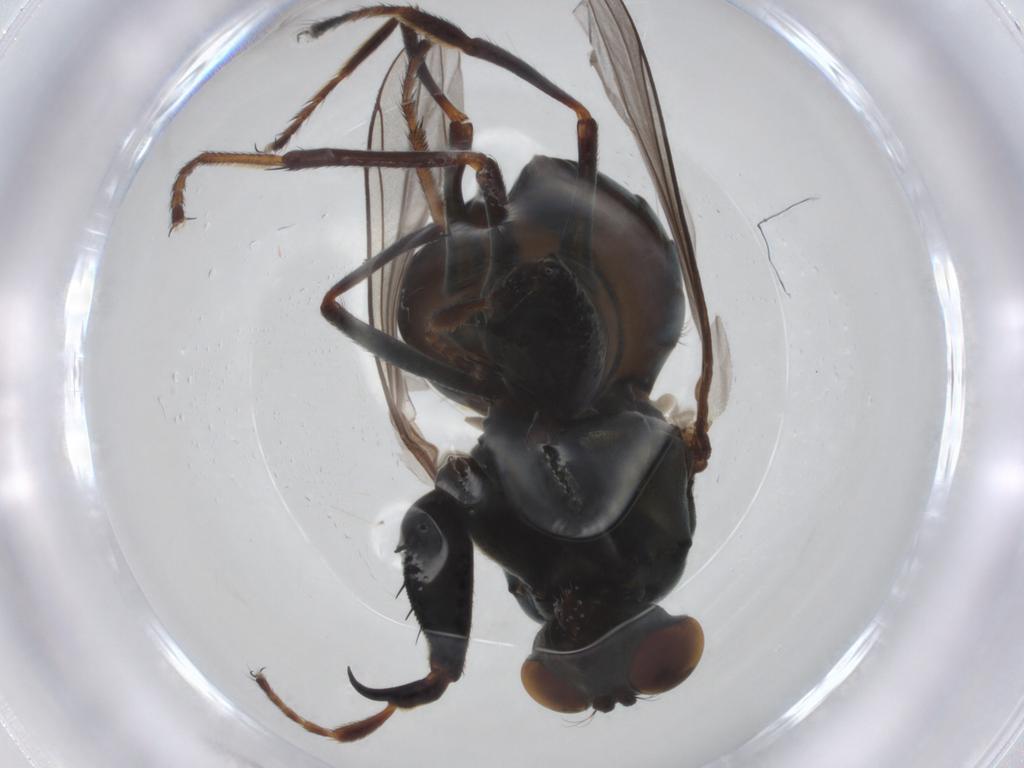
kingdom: Animalia
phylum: Arthropoda
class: Insecta
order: Diptera
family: Ephydridae
